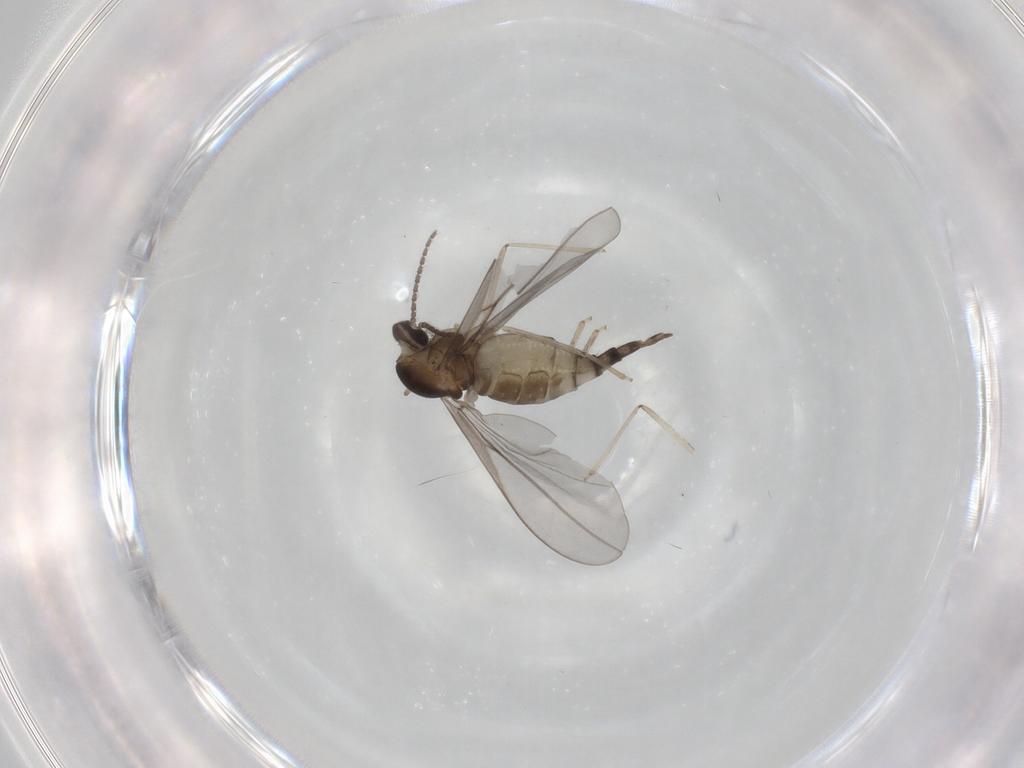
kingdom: Animalia
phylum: Arthropoda
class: Insecta
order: Diptera
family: Cecidomyiidae
